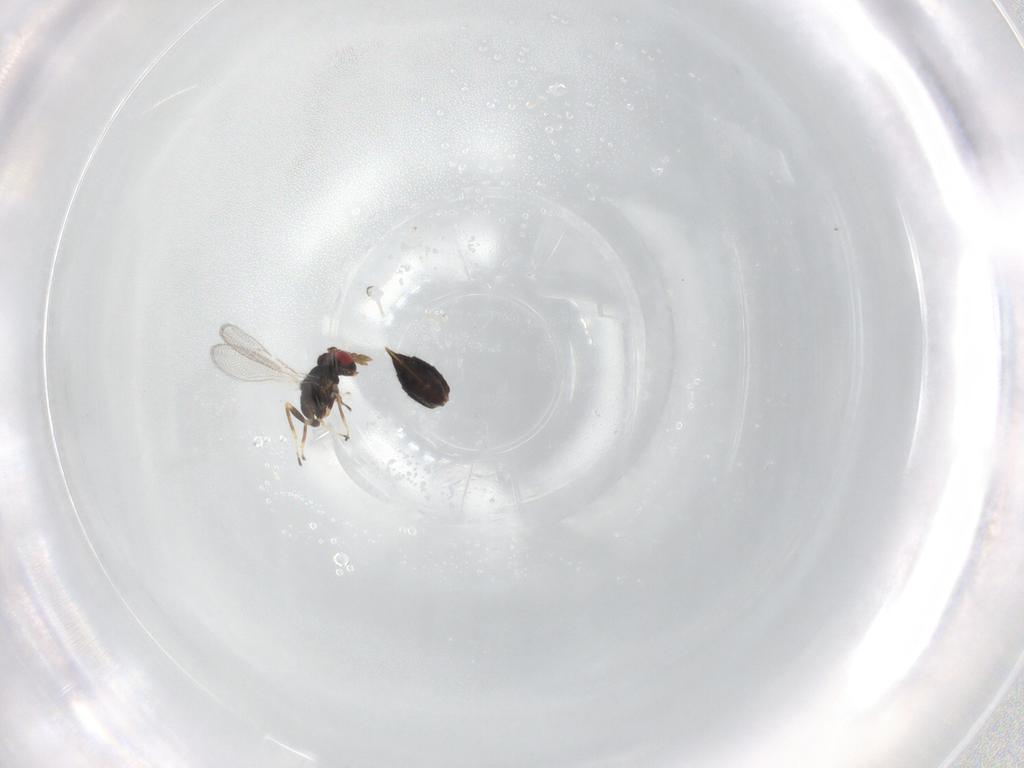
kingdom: Animalia
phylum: Arthropoda
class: Insecta
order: Hymenoptera
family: Eulophidae
